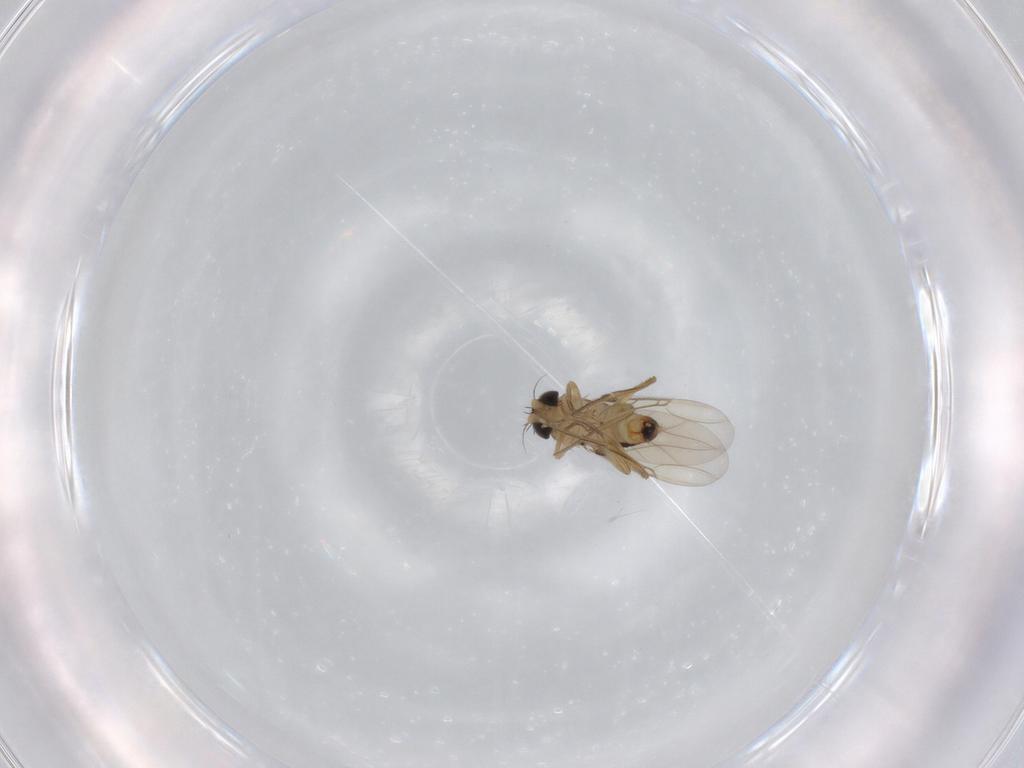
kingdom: Animalia
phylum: Arthropoda
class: Insecta
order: Diptera
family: Phoridae
